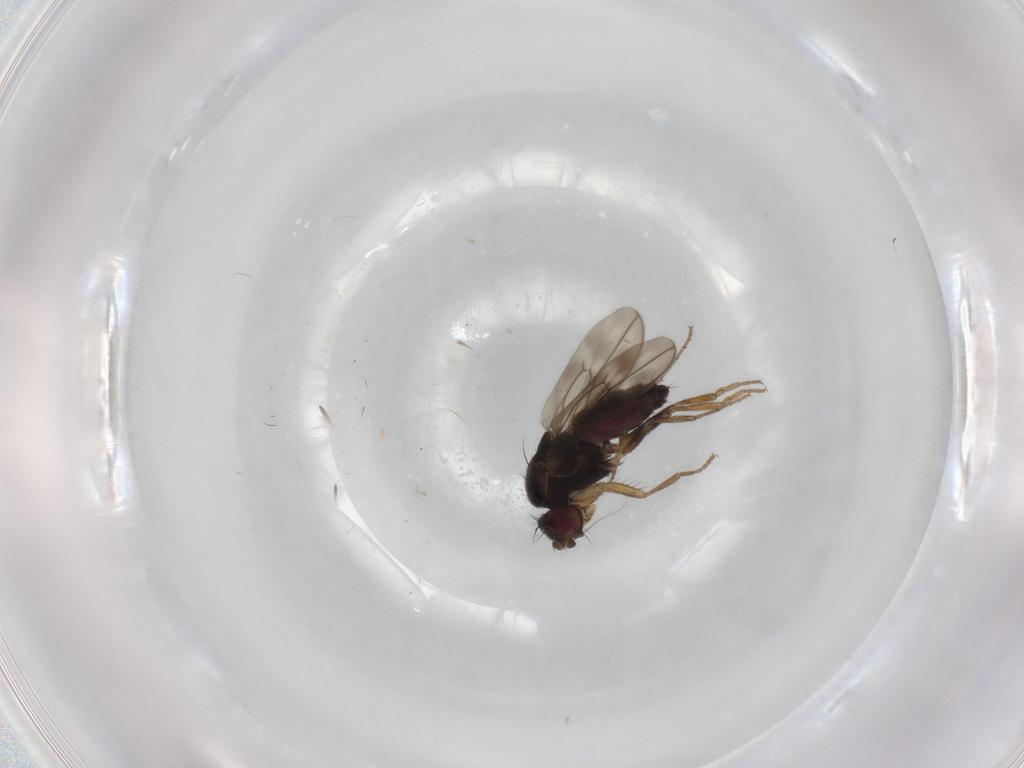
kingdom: Animalia
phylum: Arthropoda
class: Insecta
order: Diptera
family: Sphaeroceridae
